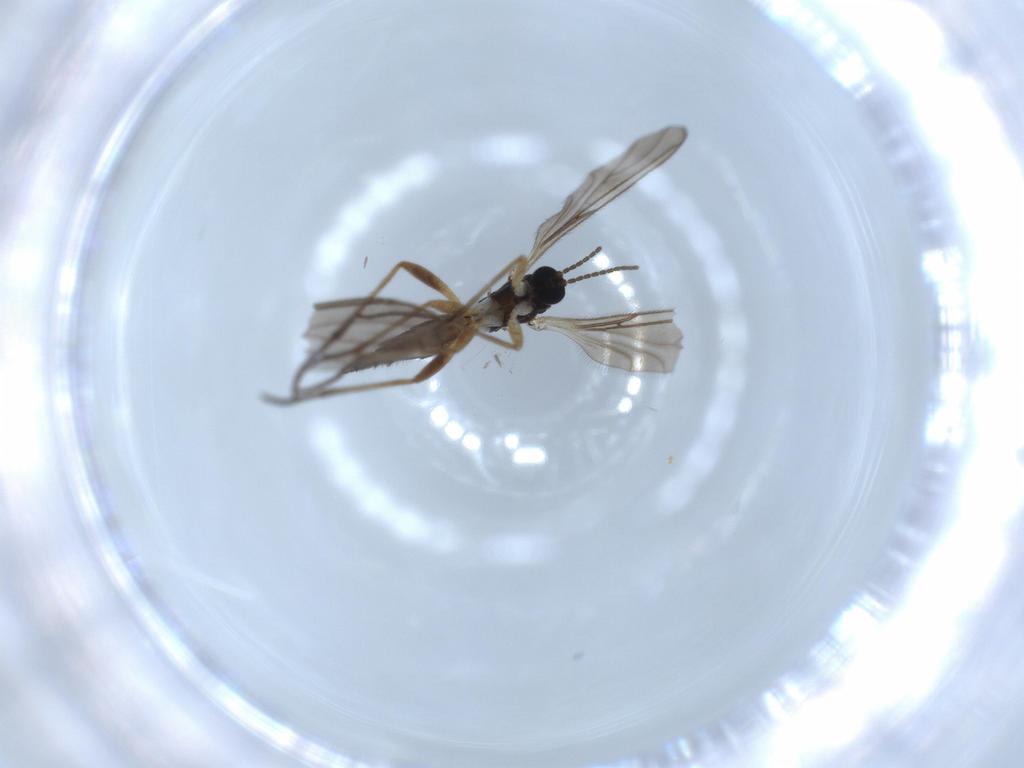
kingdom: Animalia
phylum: Arthropoda
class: Insecta
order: Diptera
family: Sciaridae
